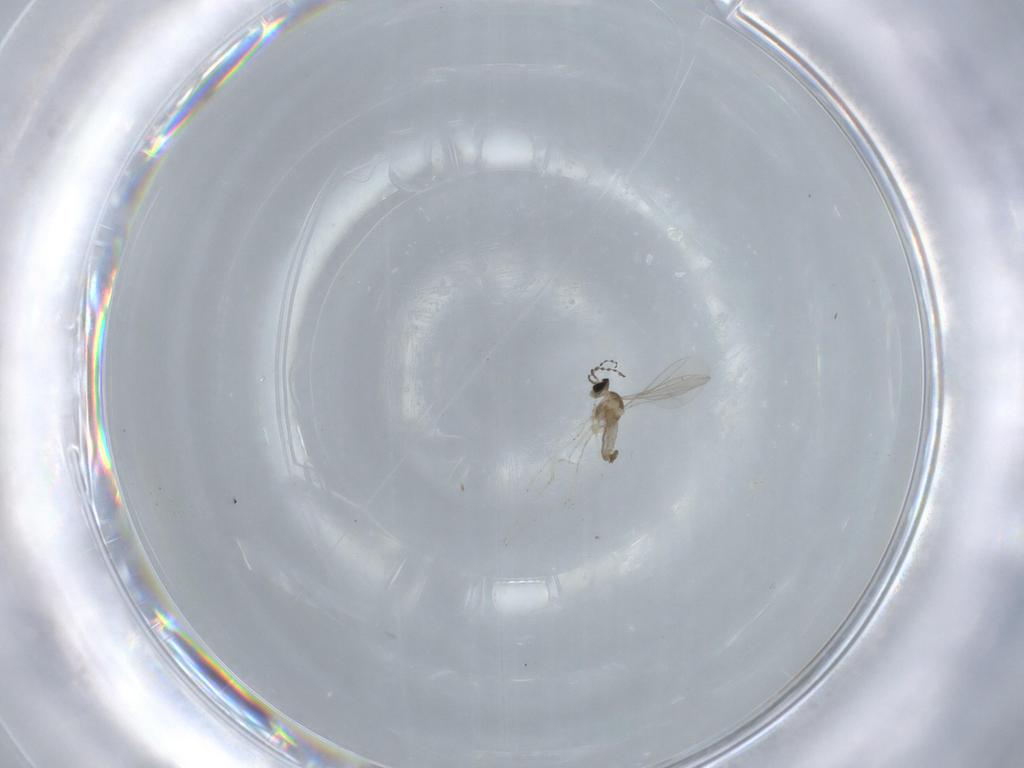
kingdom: Animalia
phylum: Arthropoda
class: Insecta
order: Diptera
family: Cecidomyiidae
